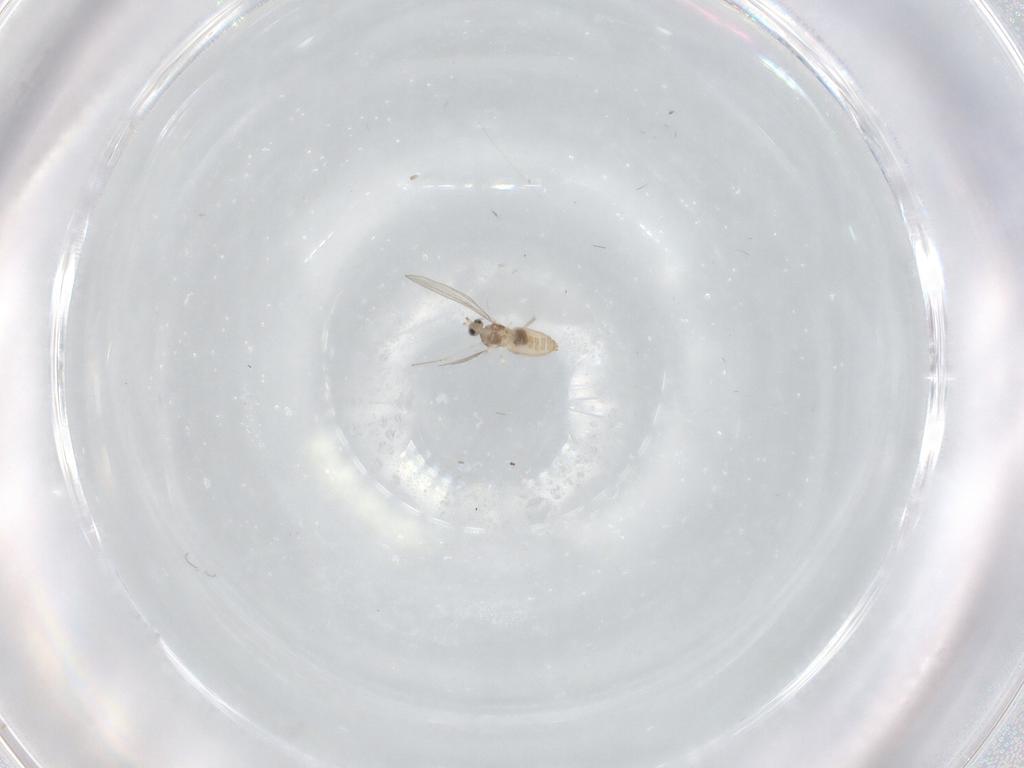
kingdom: Animalia
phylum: Arthropoda
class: Insecta
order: Diptera
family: Cecidomyiidae
